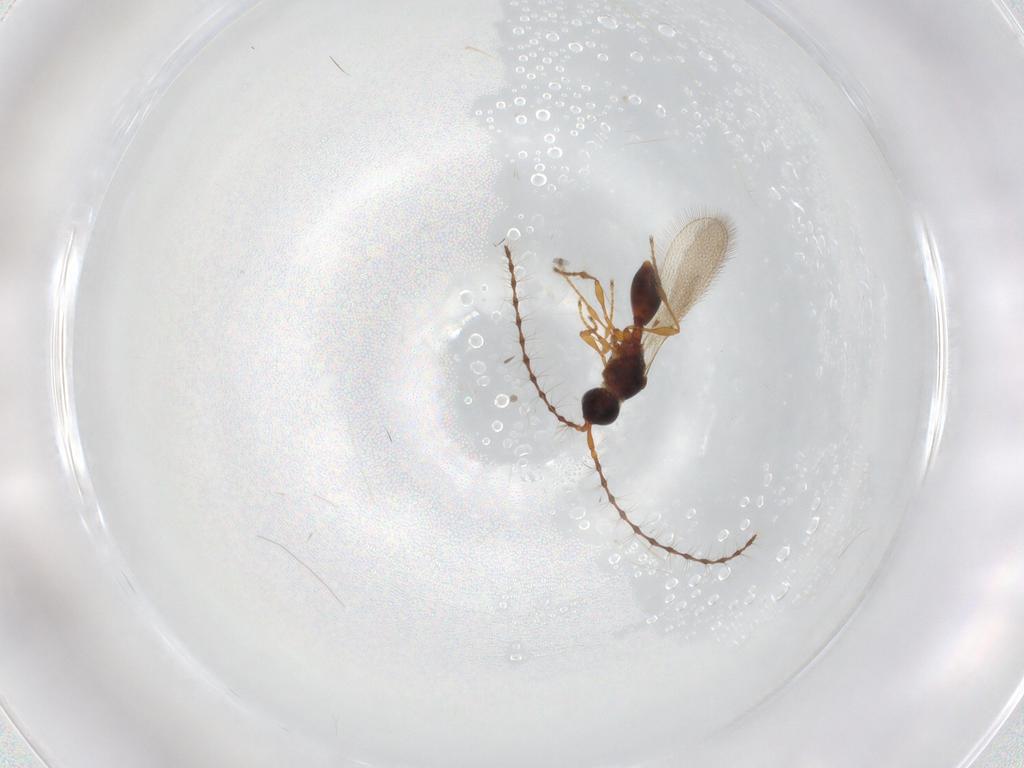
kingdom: Animalia
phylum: Arthropoda
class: Insecta
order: Hymenoptera
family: Diapriidae
